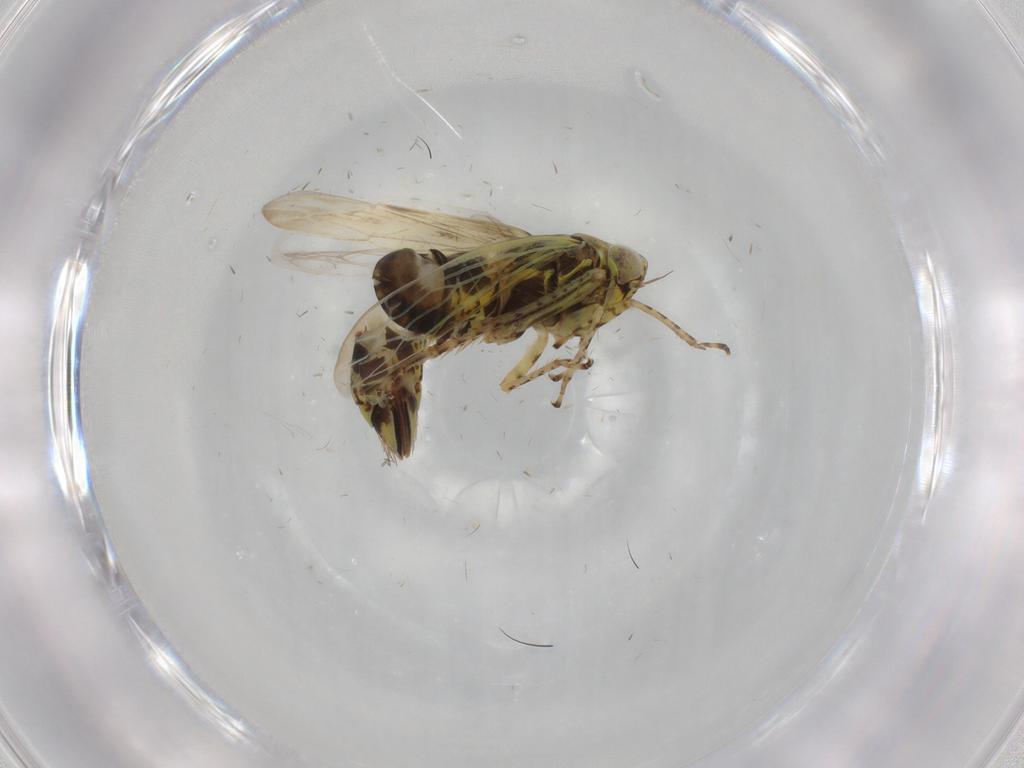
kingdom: Animalia
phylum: Arthropoda
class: Insecta
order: Hemiptera
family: Cicadellidae
